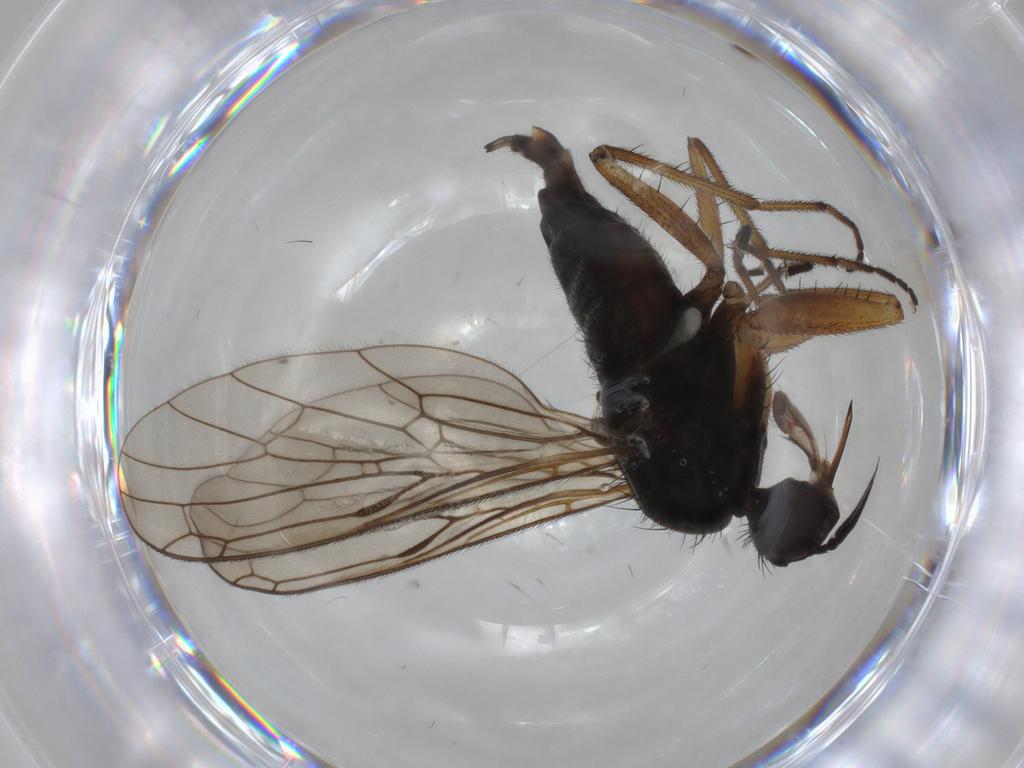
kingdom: Animalia
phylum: Arthropoda
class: Insecta
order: Diptera
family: Empididae
